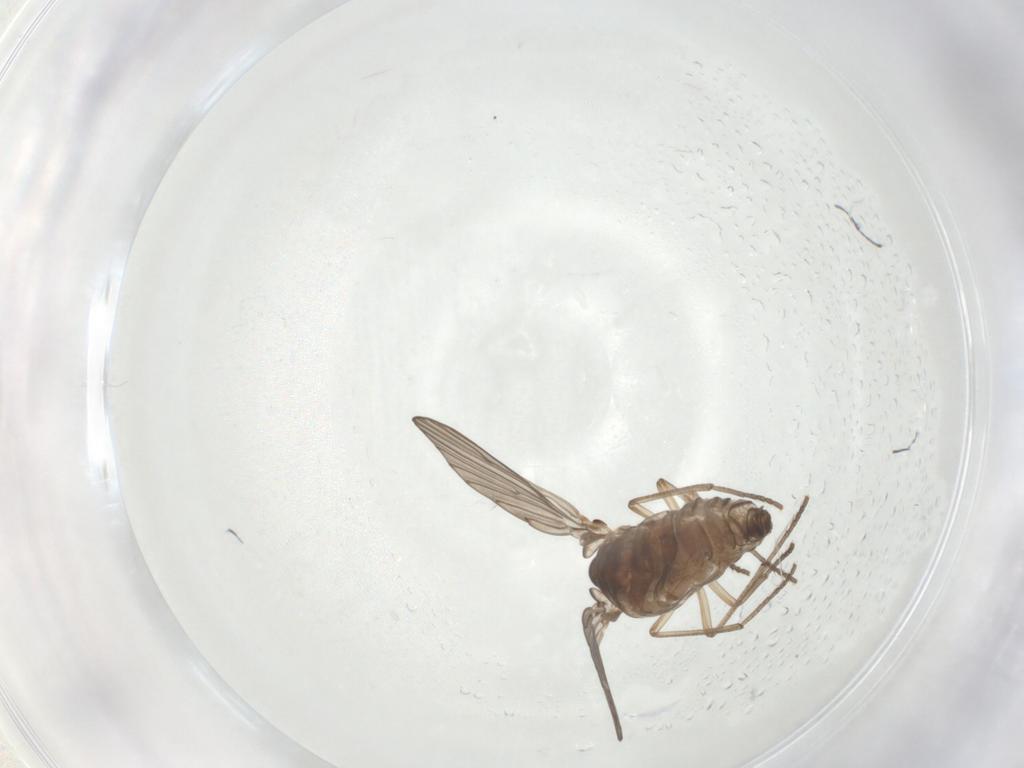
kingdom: Animalia
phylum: Arthropoda
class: Insecta
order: Diptera
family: Psychodidae
